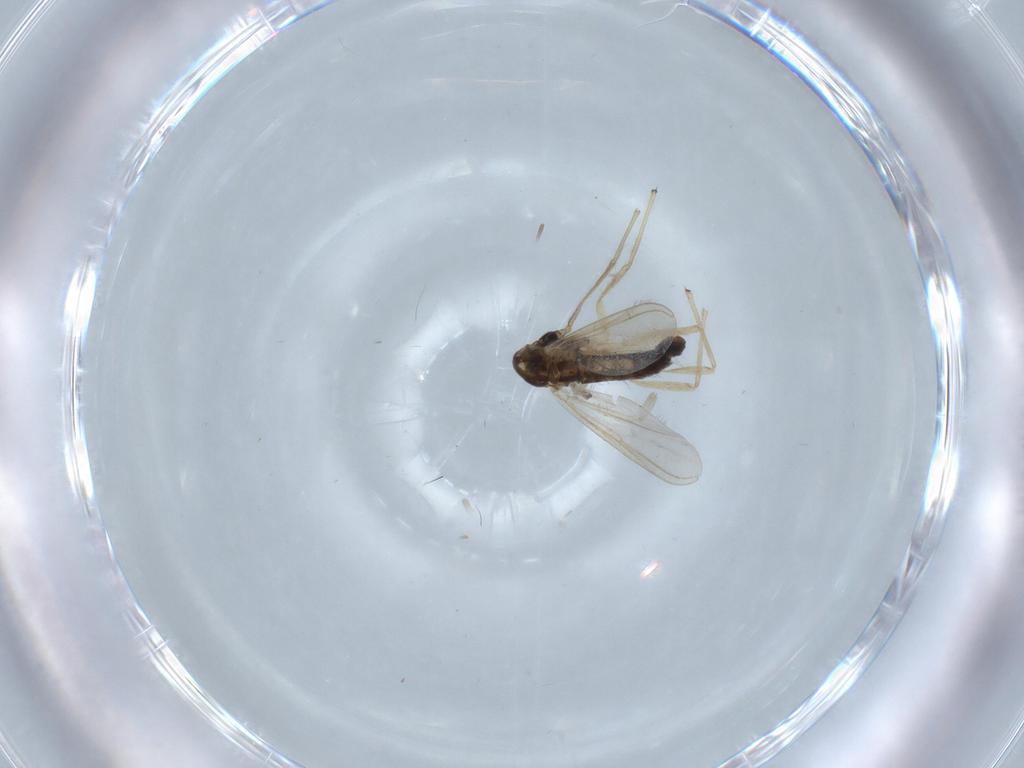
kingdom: Animalia
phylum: Arthropoda
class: Insecta
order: Diptera
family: Chironomidae
